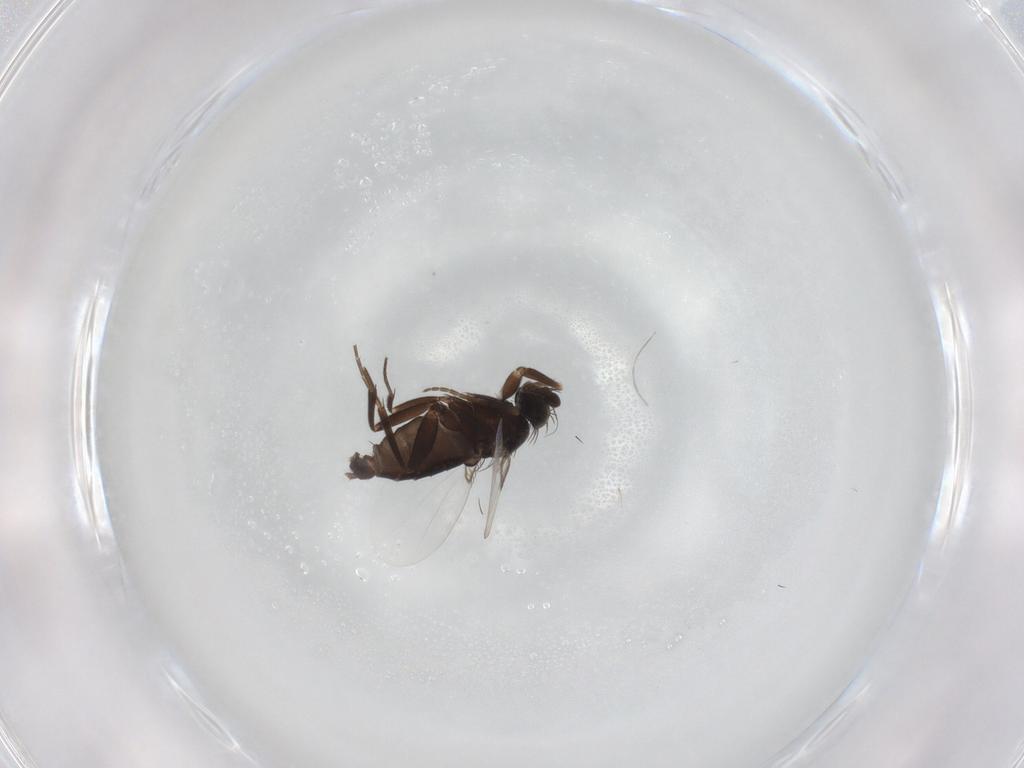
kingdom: Animalia
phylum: Arthropoda
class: Insecta
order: Diptera
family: Phoridae
